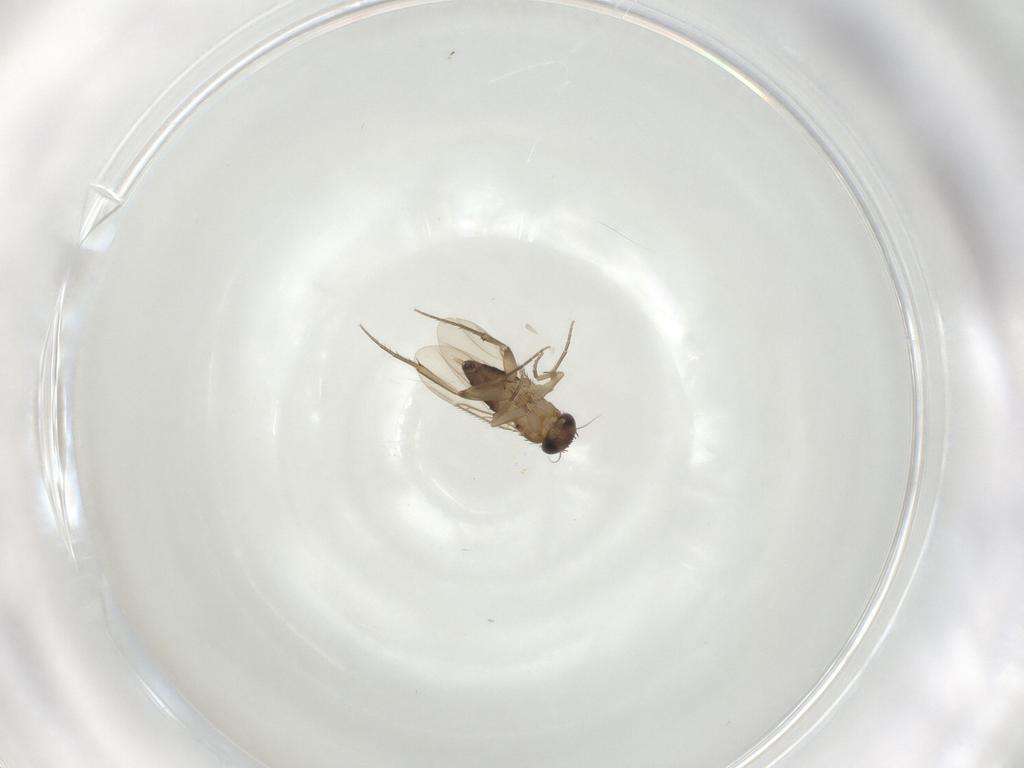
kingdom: Animalia
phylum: Arthropoda
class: Insecta
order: Diptera
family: Phoridae
